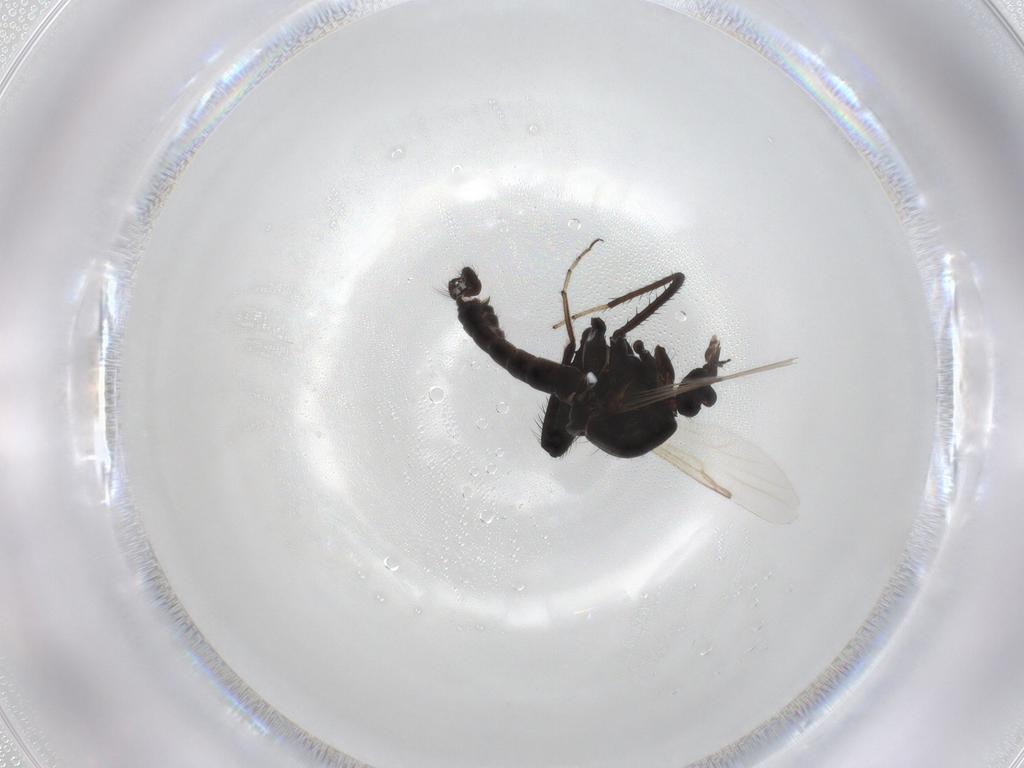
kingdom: Animalia
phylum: Arthropoda
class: Insecta
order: Diptera
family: Ceratopogonidae
